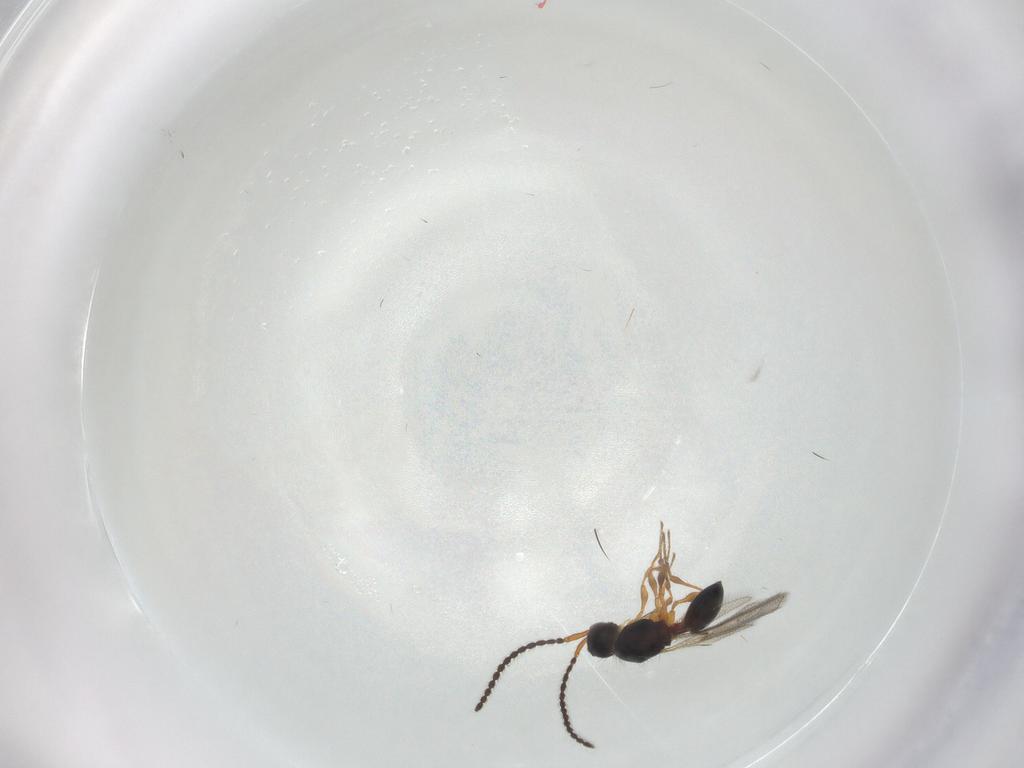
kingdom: Animalia
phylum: Arthropoda
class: Insecta
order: Hymenoptera
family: Diapriidae
